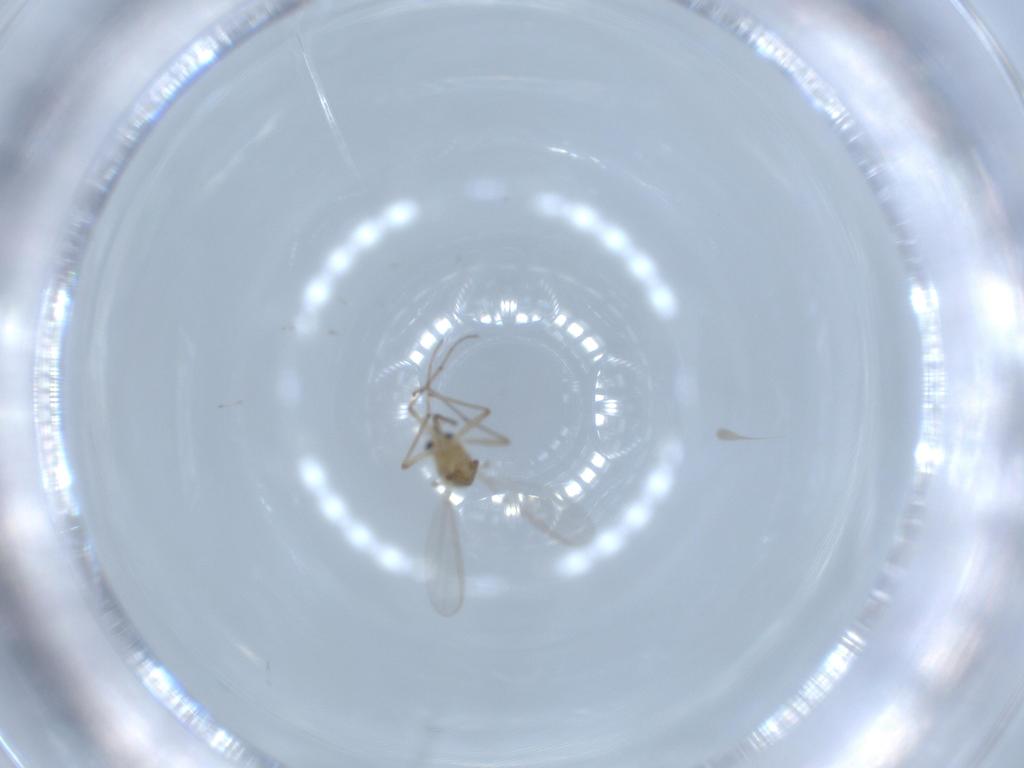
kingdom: Animalia
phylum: Arthropoda
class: Insecta
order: Diptera
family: Chironomidae
